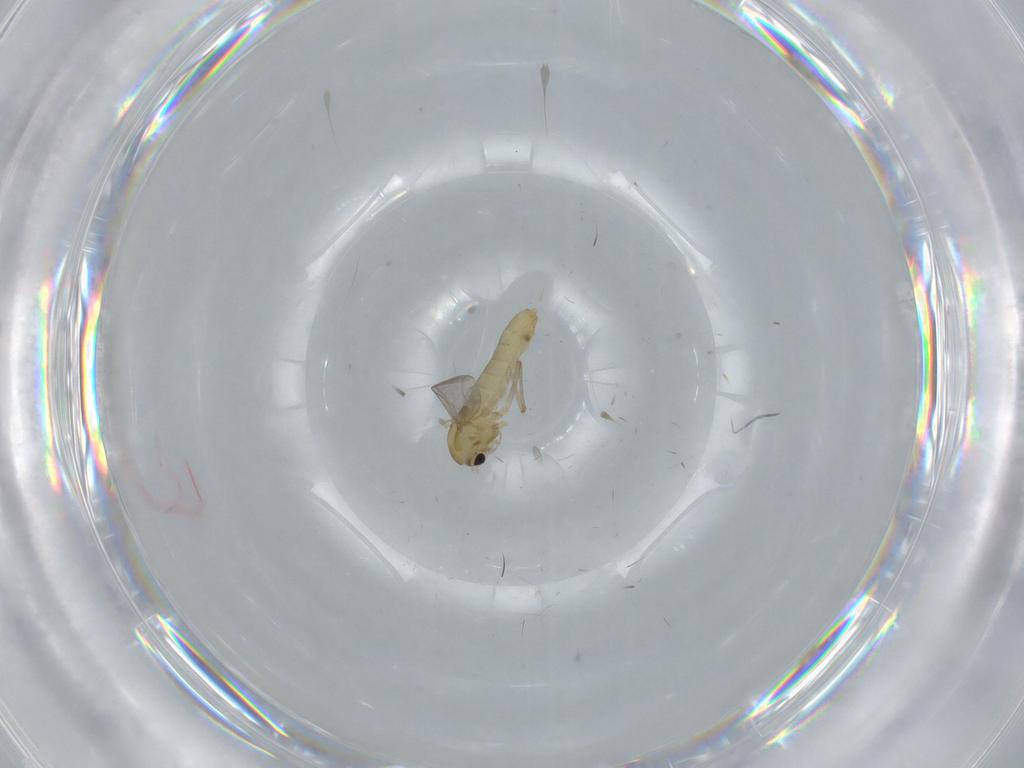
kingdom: Animalia
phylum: Arthropoda
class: Insecta
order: Diptera
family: Chironomidae
